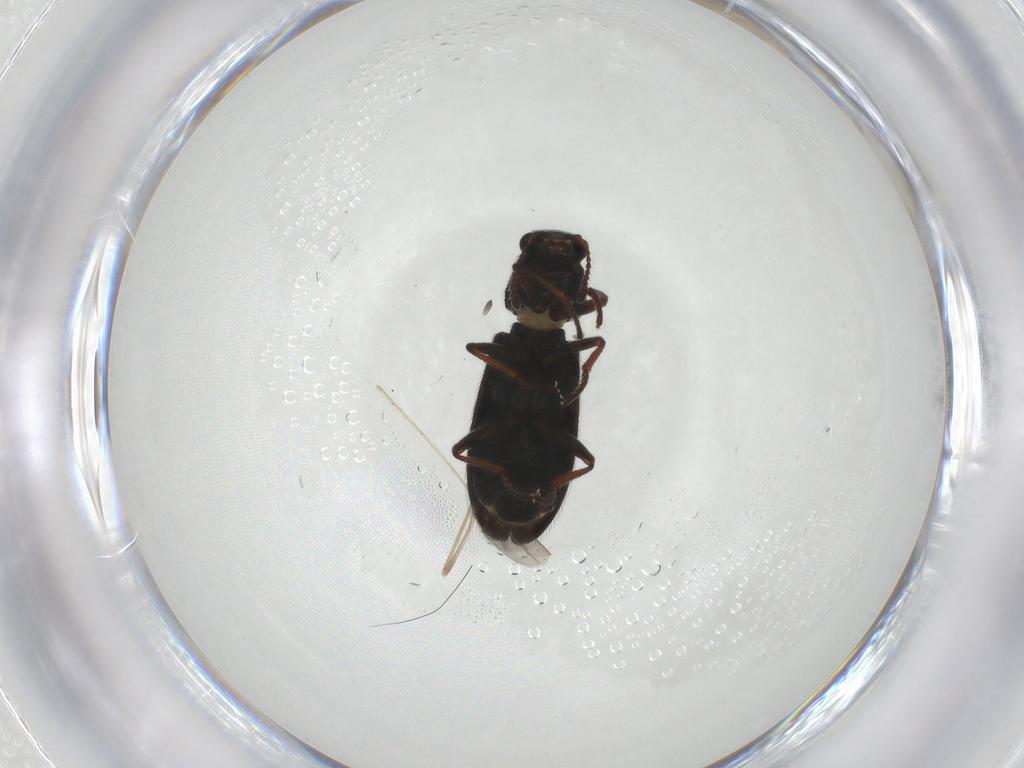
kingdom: Animalia
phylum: Arthropoda
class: Insecta
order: Coleoptera
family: Melyridae
